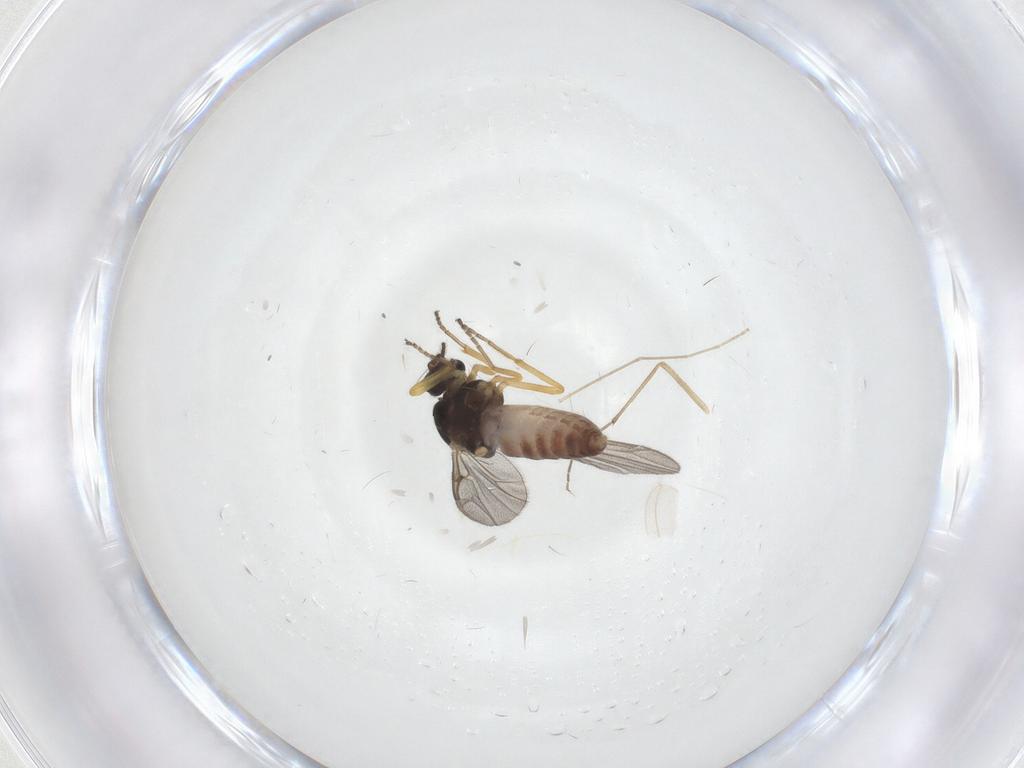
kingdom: Animalia
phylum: Arthropoda
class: Insecta
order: Diptera
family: Ceratopogonidae
